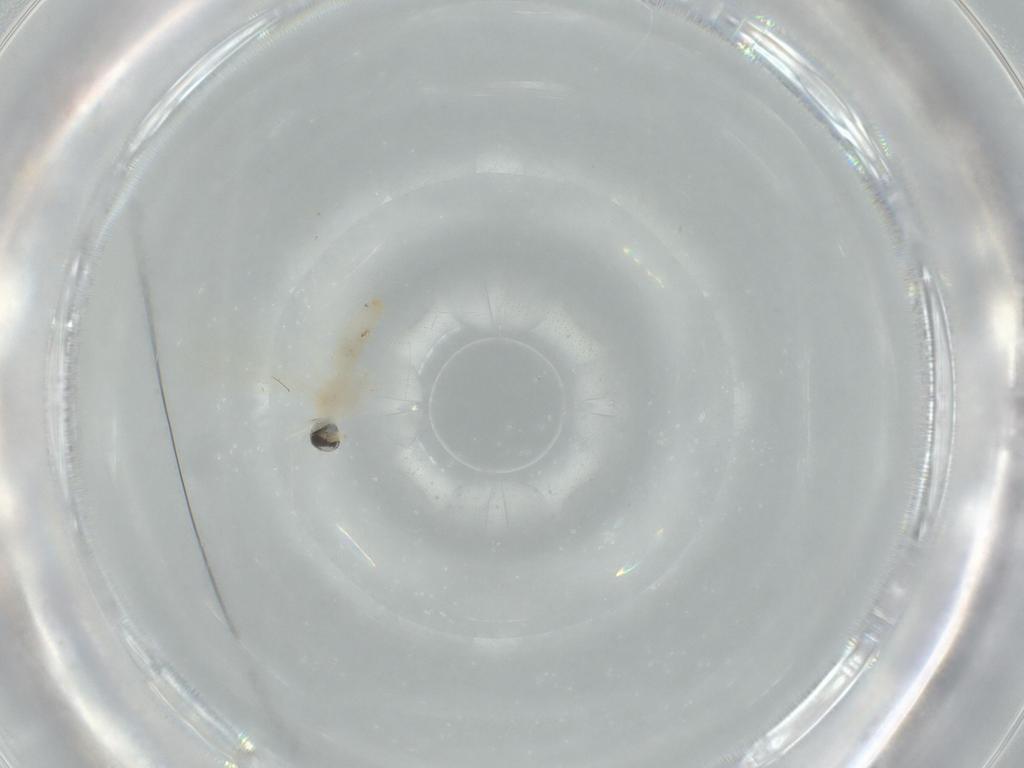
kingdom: Animalia
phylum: Arthropoda
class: Insecta
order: Diptera
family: Cecidomyiidae
